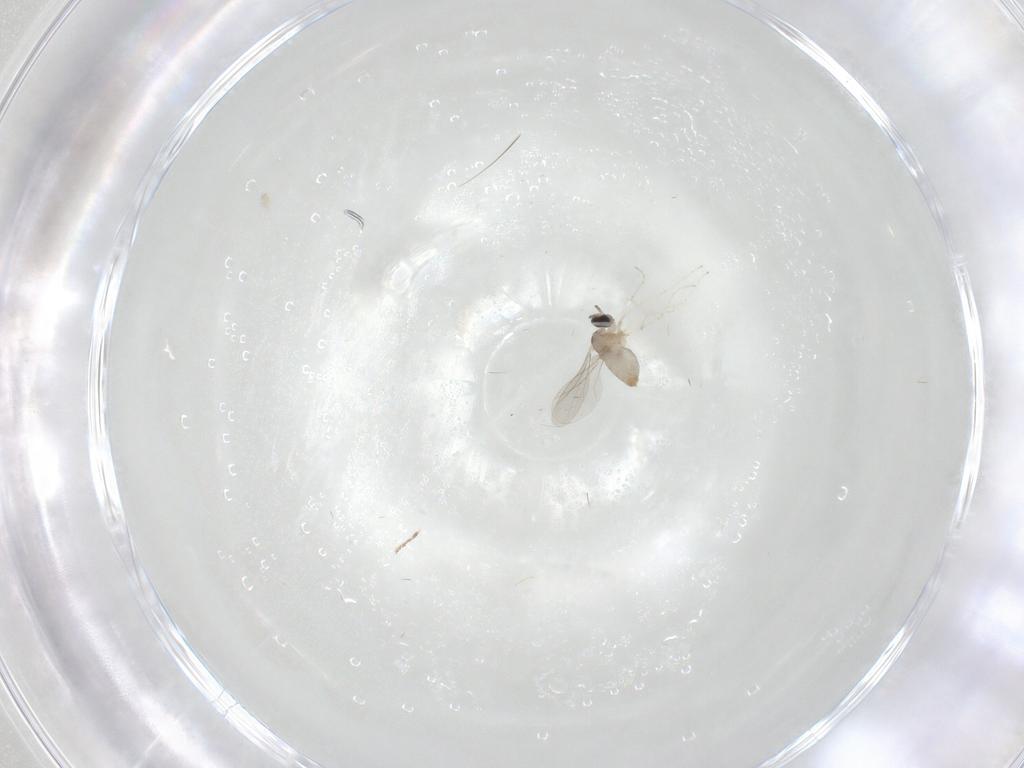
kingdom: Animalia
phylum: Arthropoda
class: Insecta
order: Diptera
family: Cecidomyiidae
